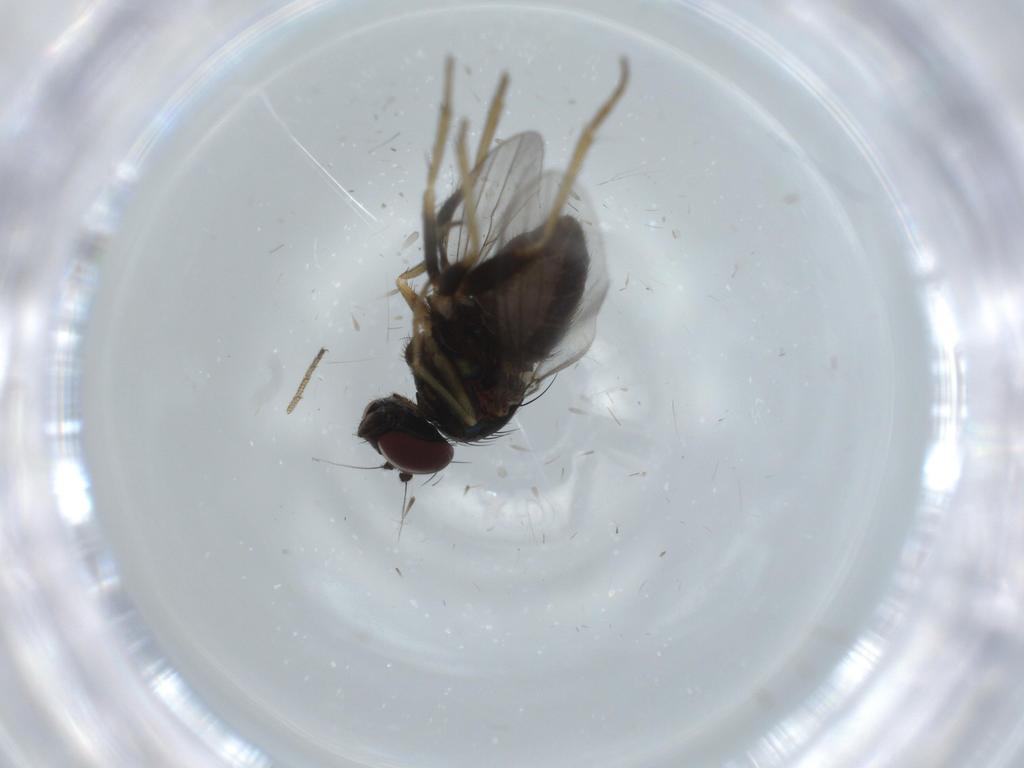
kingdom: Animalia
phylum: Arthropoda
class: Insecta
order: Diptera
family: Dolichopodidae
